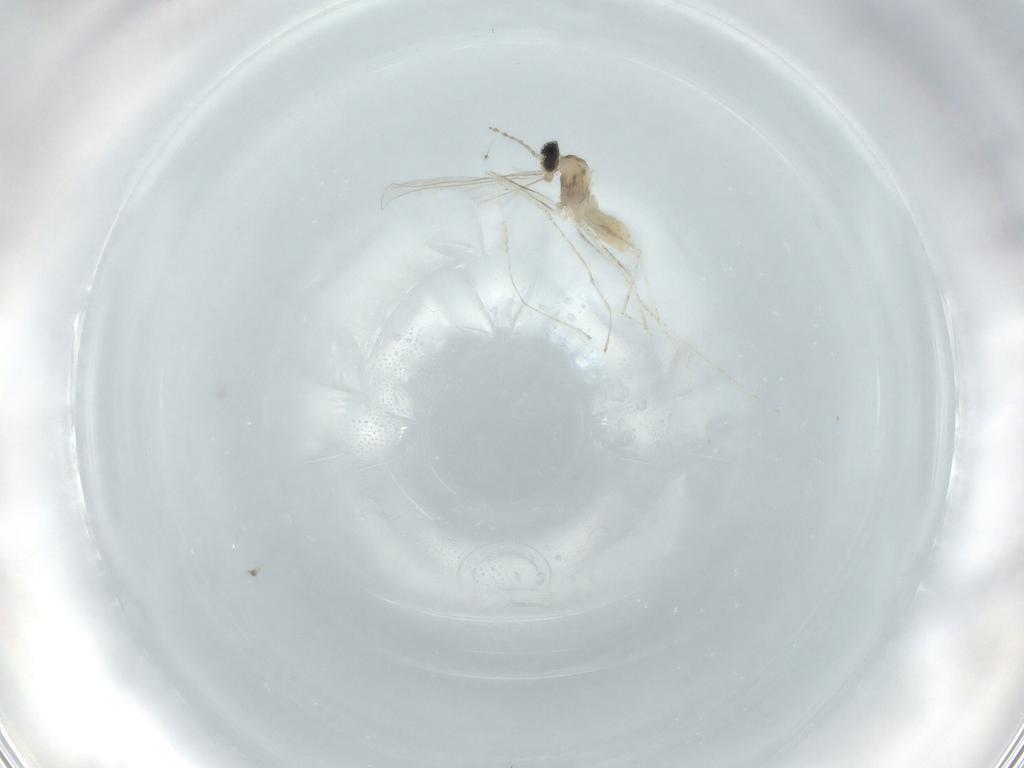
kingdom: Animalia
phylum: Arthropoda
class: Insecta
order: Diptera
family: Cecidomyiidae
